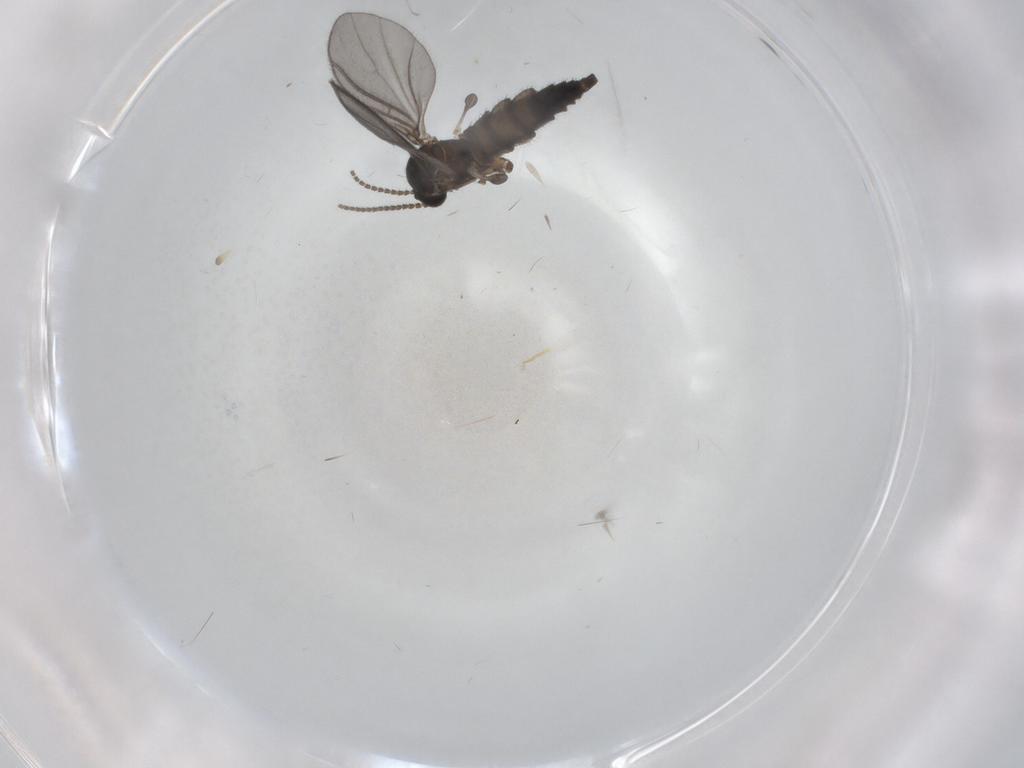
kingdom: Animalia
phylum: Arthropoda
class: Insecta
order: Diptera
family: Sciaridae
